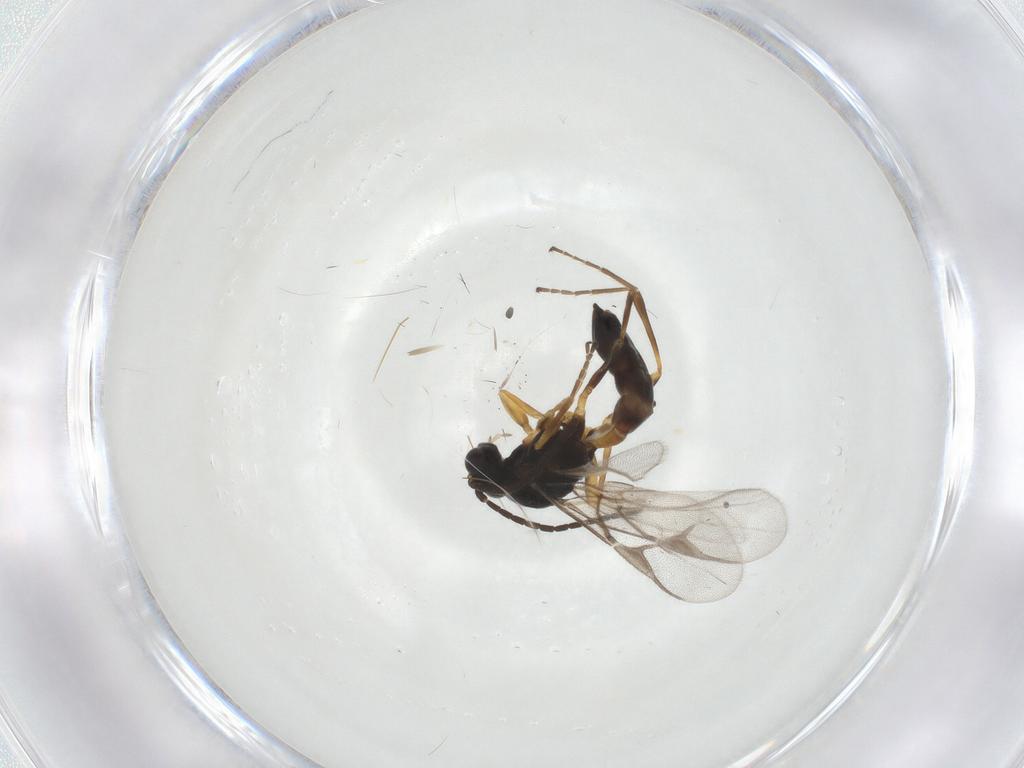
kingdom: Animalia
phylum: Arthropoda
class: Insecta
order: Hymenoptera
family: Braconidae
